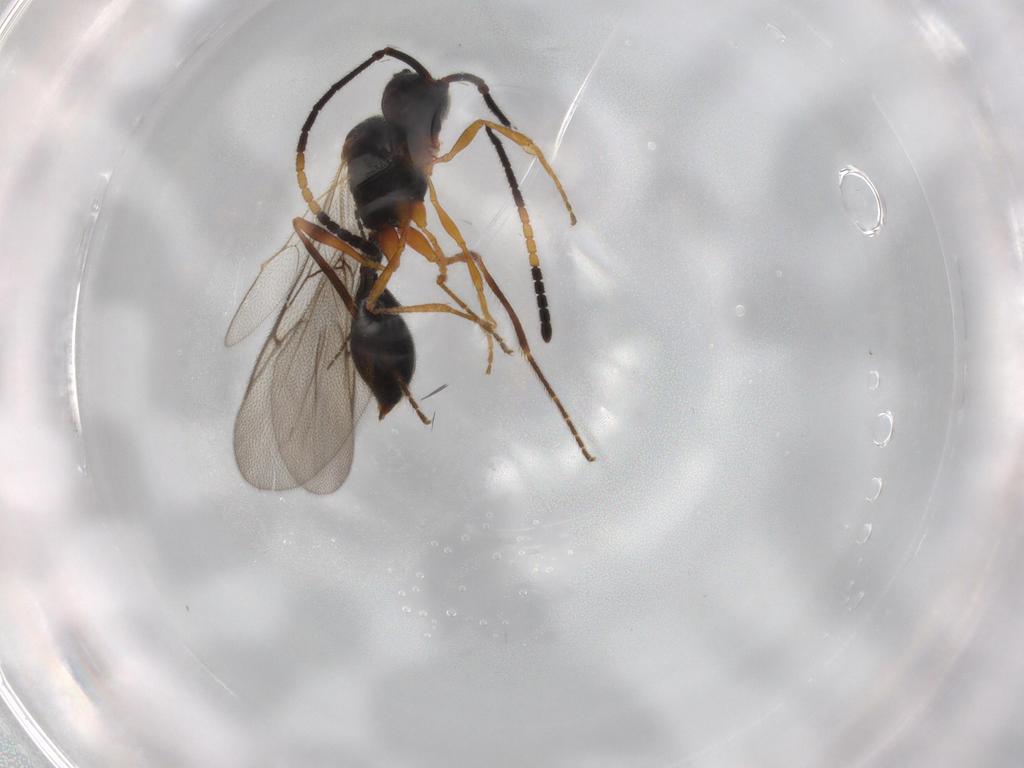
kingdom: Animalia
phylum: Arthropoda
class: Insecta
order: Hymenoptera
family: Diapriidae
